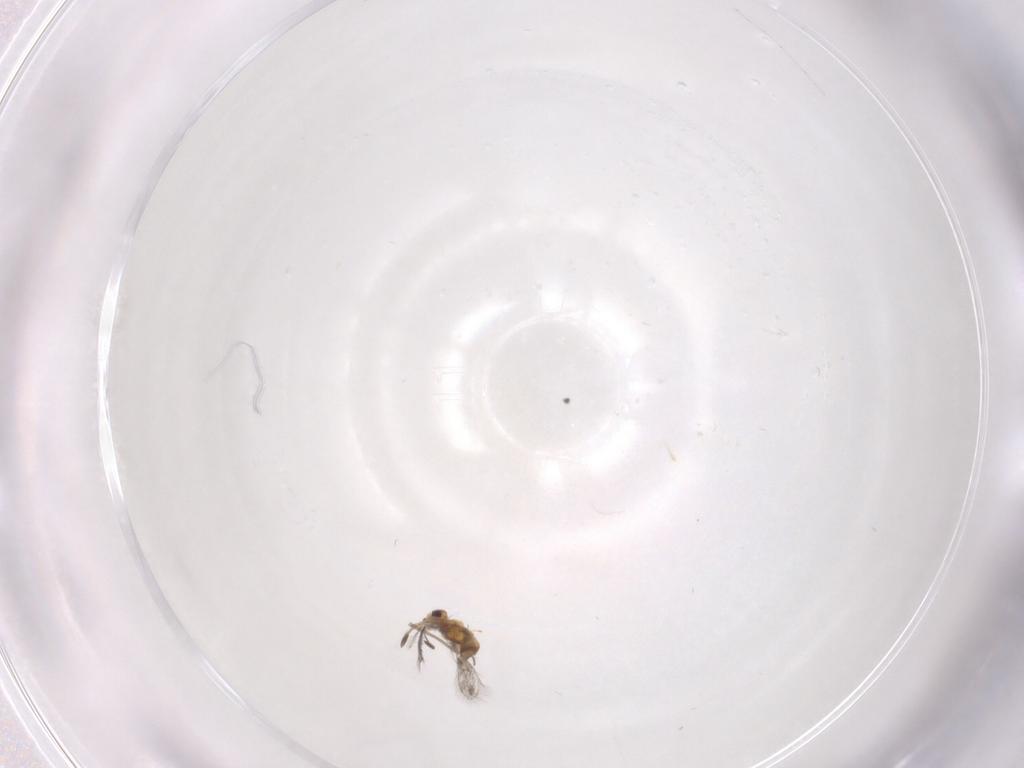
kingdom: Animalia
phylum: Arthropoda
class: Insecta
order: Hymenoptera
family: Mymaridae
